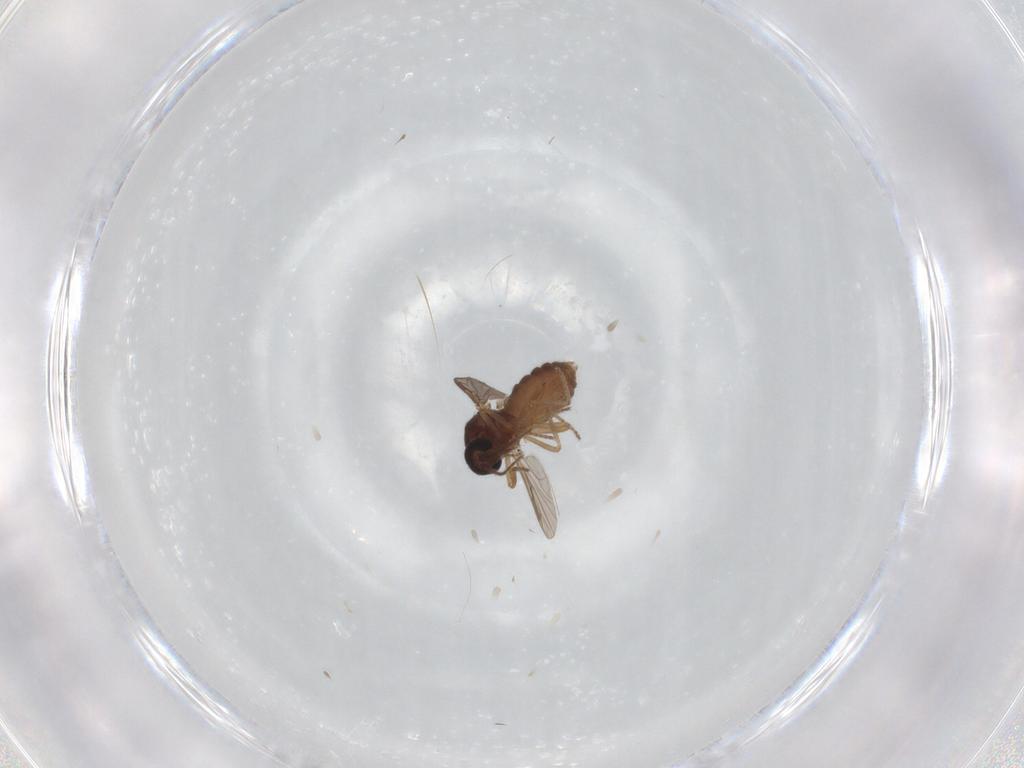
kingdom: Animalia
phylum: Arthropoda
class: Insecta
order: Diptera
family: Ceratopogonidae
